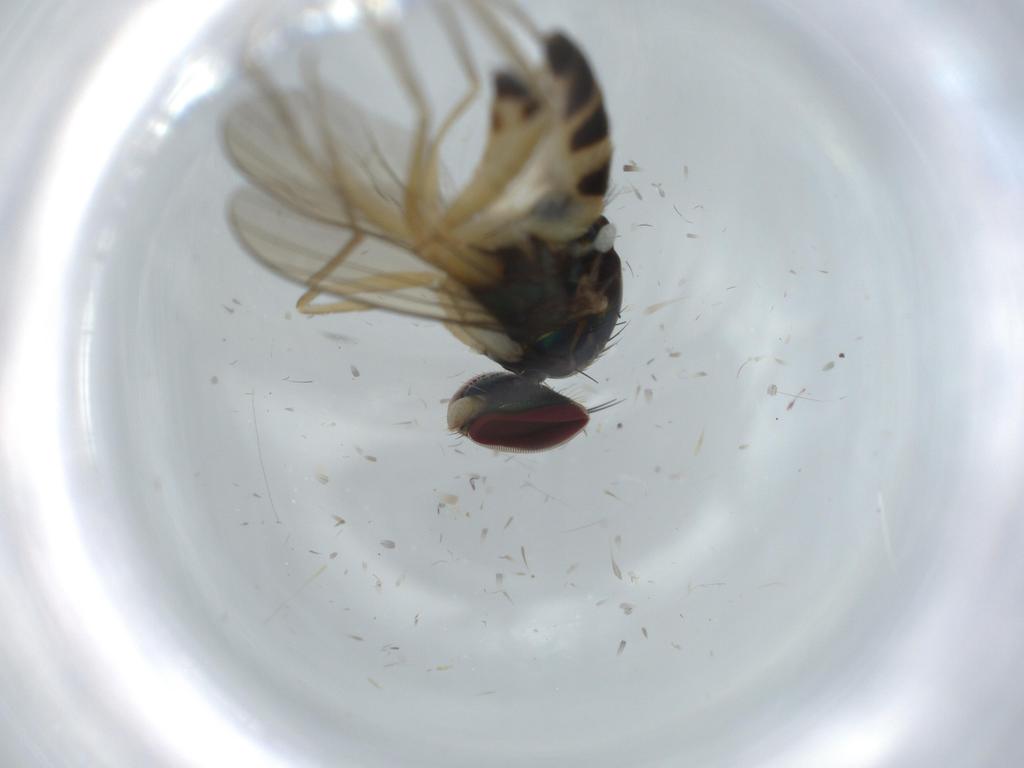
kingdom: Animalia
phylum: Arthropoda
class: Insecta
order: Diptera
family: Dolichopodidae
